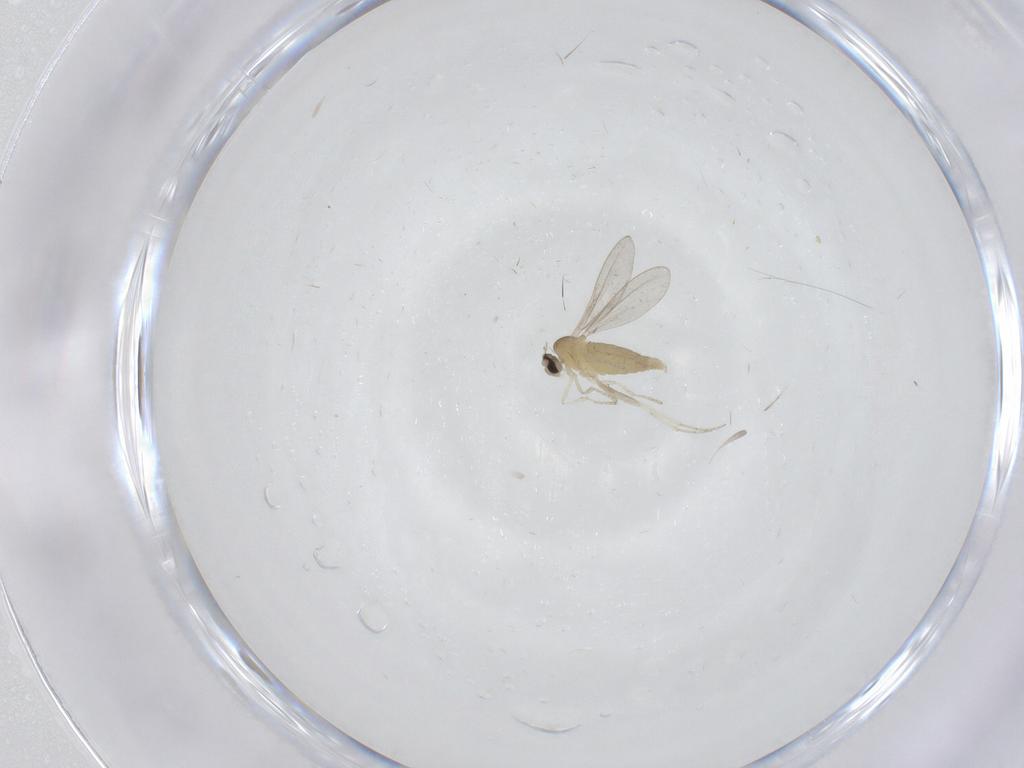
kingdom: Animalia
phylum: Arthropoda
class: Insecta
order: Diptera
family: Cecidomyiidae
